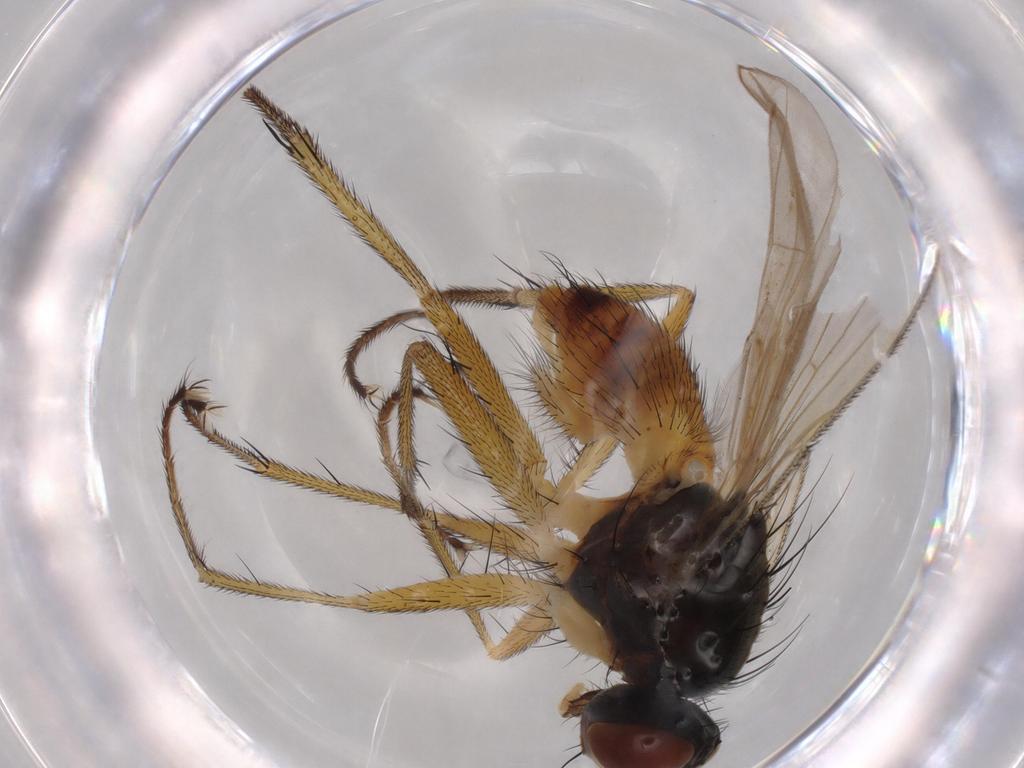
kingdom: Animalia
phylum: Arthropoda
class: Insecta
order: Diptera
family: Muscidae
